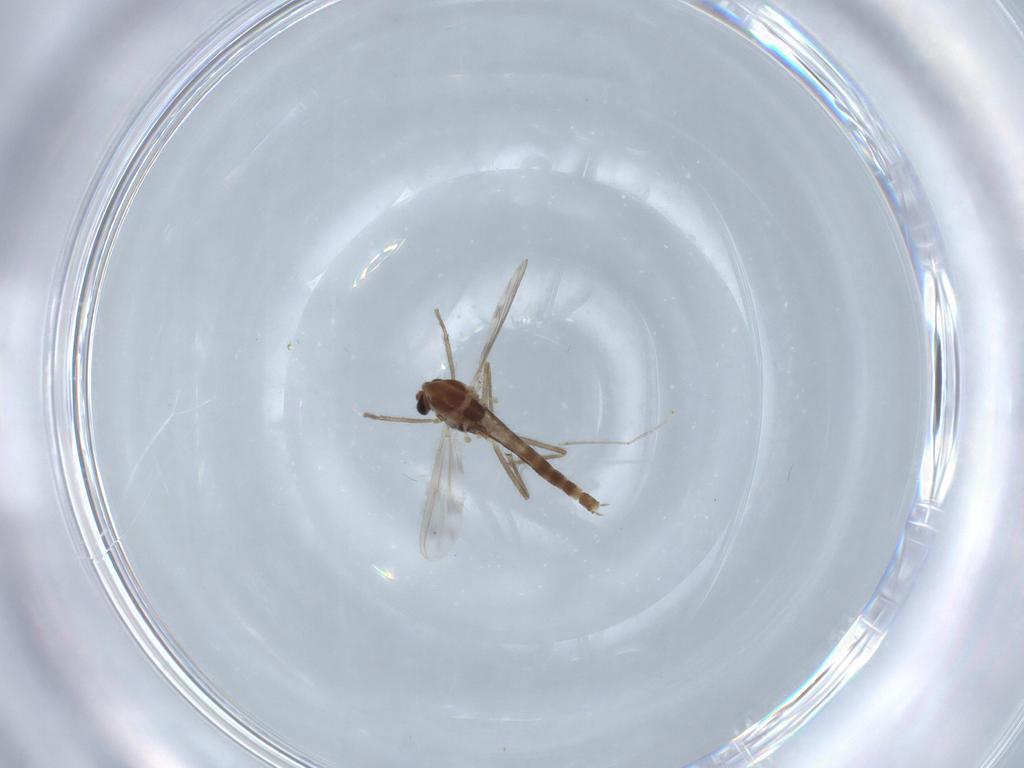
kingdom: Animalia
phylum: Arthropoda
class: Insecta
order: Diptera
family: Chironomidae
